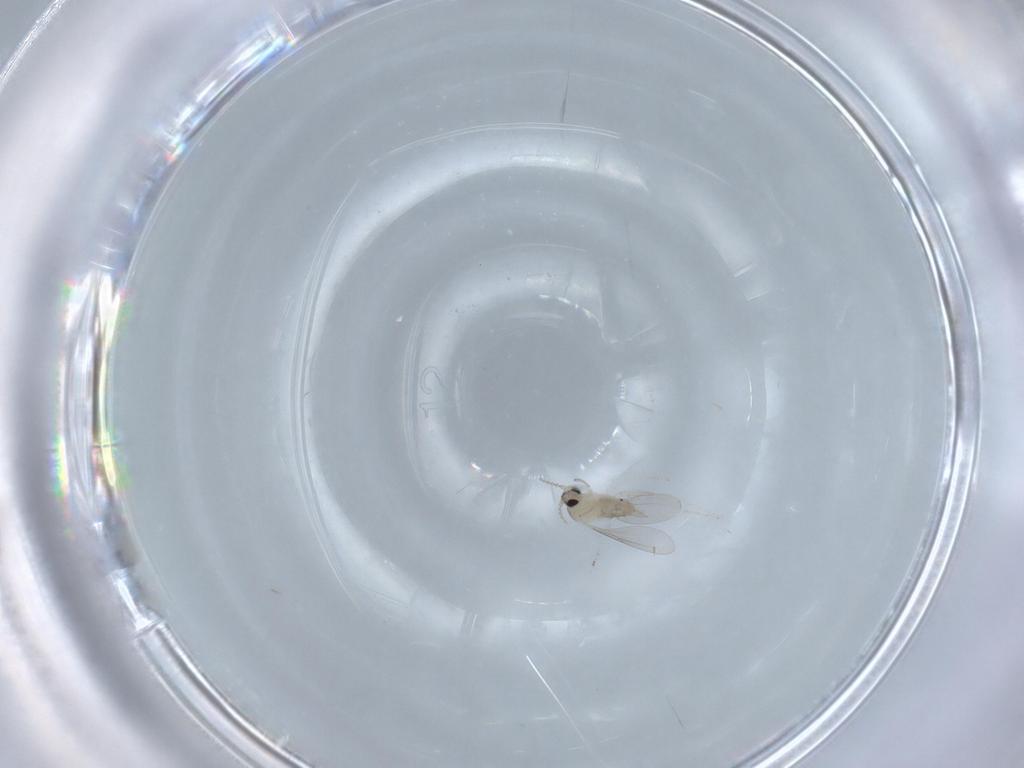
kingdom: Animalia
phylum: Arthropoda
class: Insecta
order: Diptera
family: Cecidomyiidae
